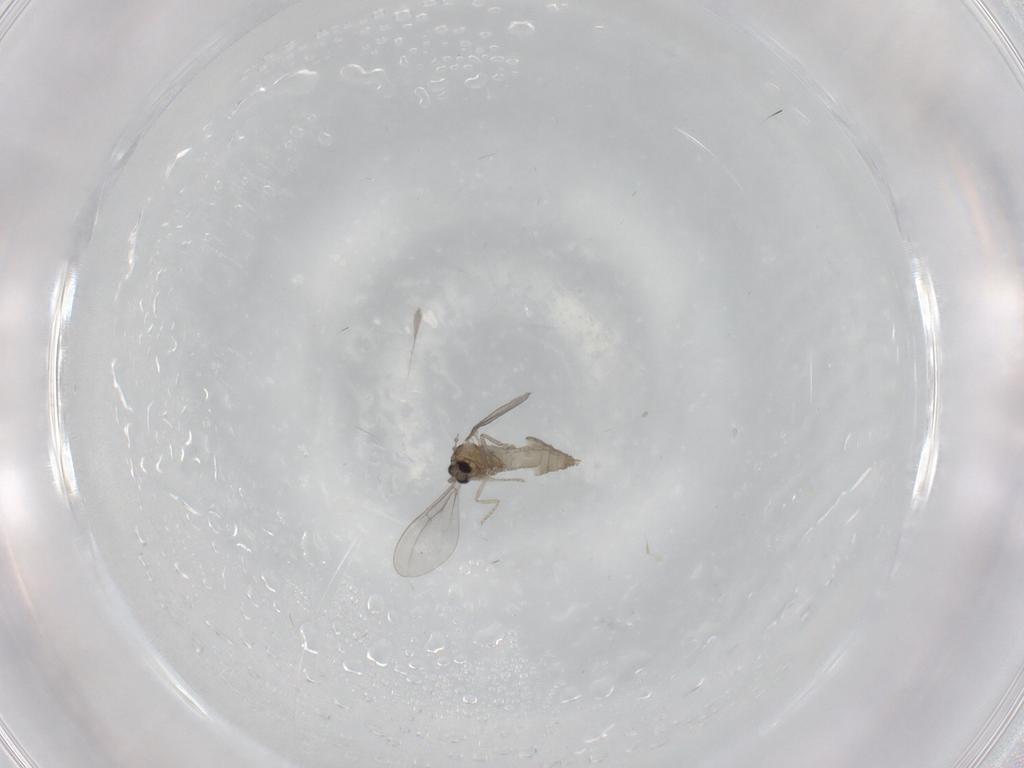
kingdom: Animalia
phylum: Arthropoda
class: Insecta
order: Diptera
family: Cecidomyiidae
